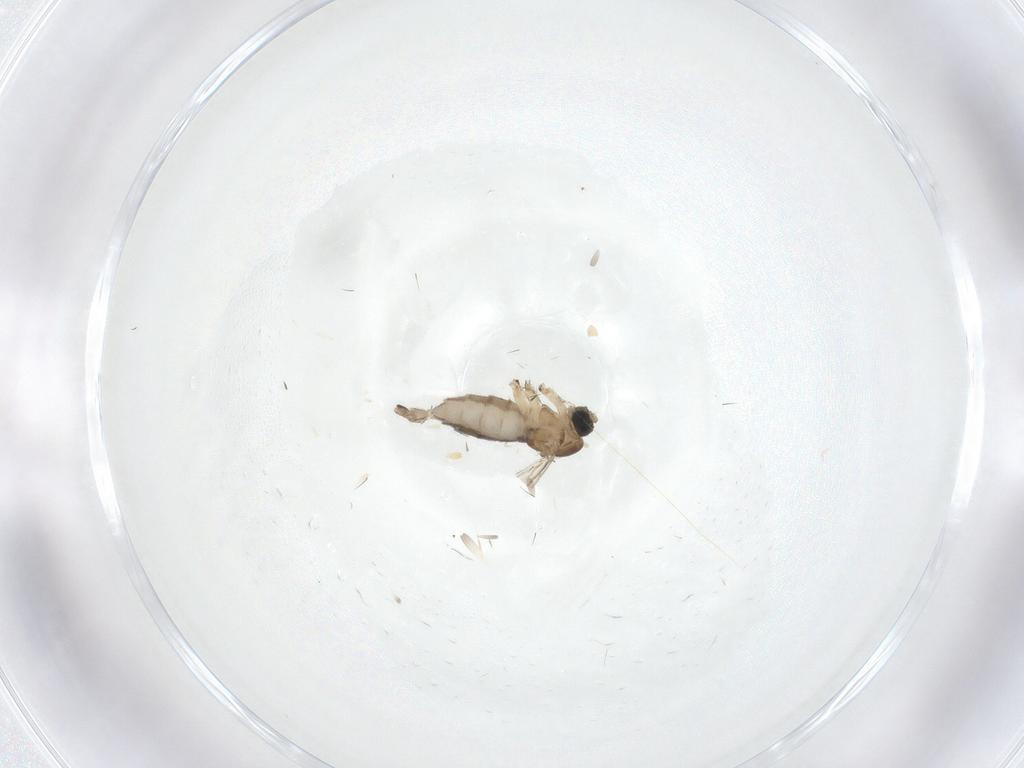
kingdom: Animalia
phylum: Arthropoda
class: Insecta
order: Diptera
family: Sciaridae
